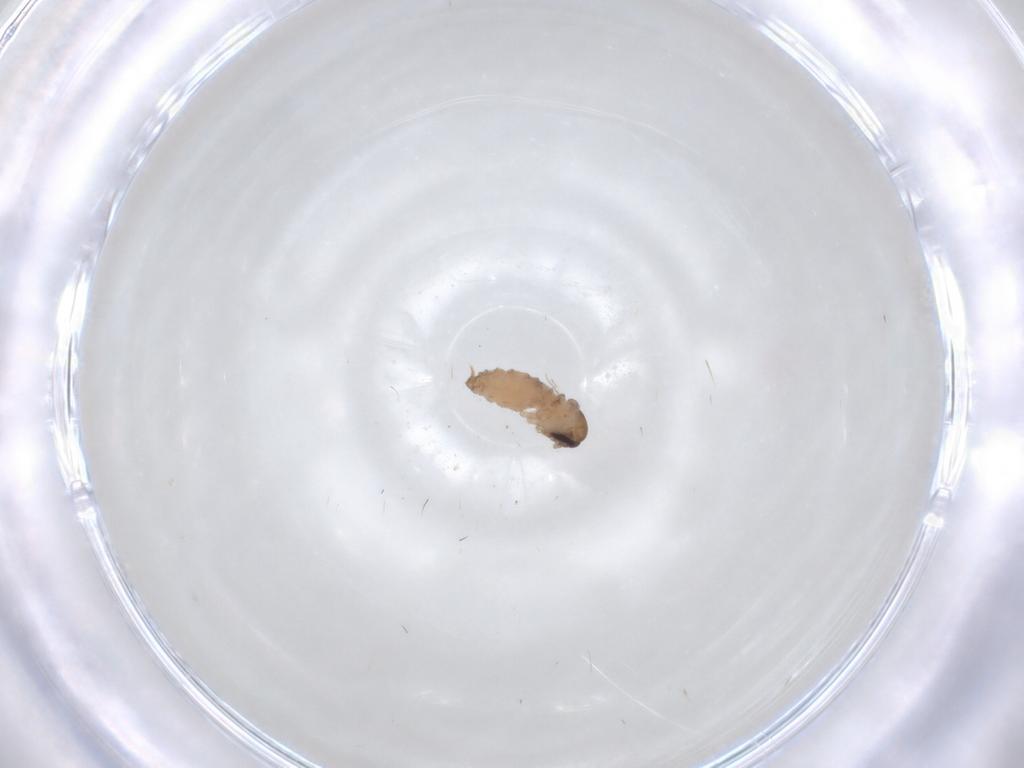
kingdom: Animalia
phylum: Arthropoda
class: Insecta
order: Diptera
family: Psychodidae
